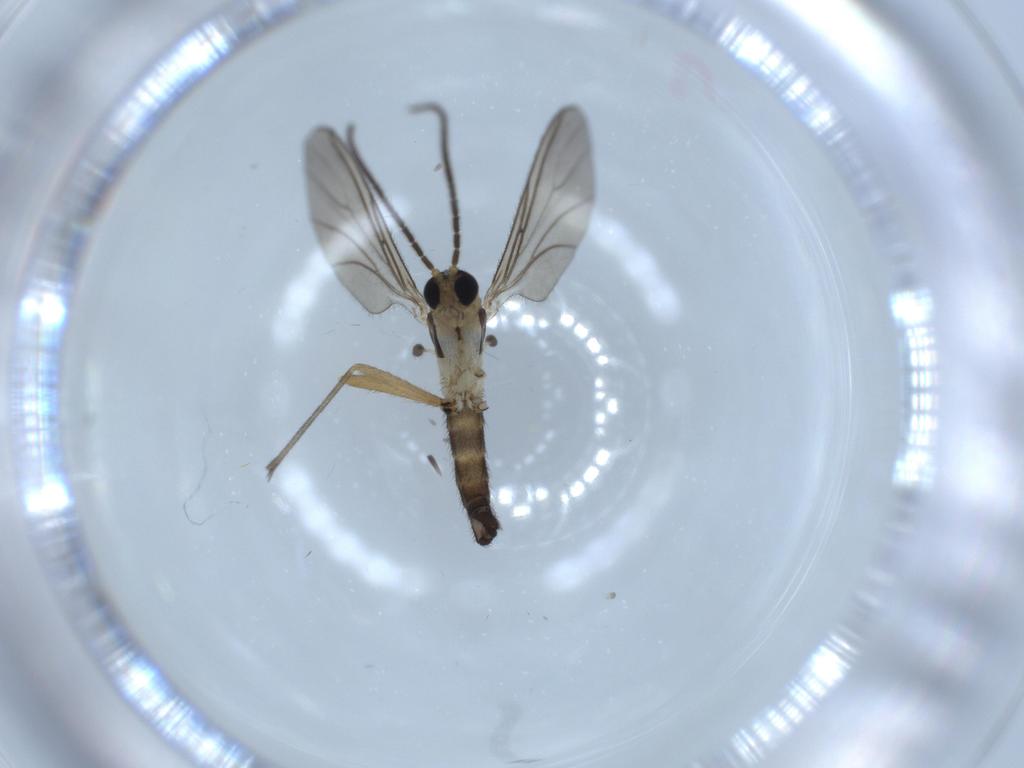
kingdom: Animalia
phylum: Arthropoda
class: Insecta
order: Diptera
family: Sciaridae
